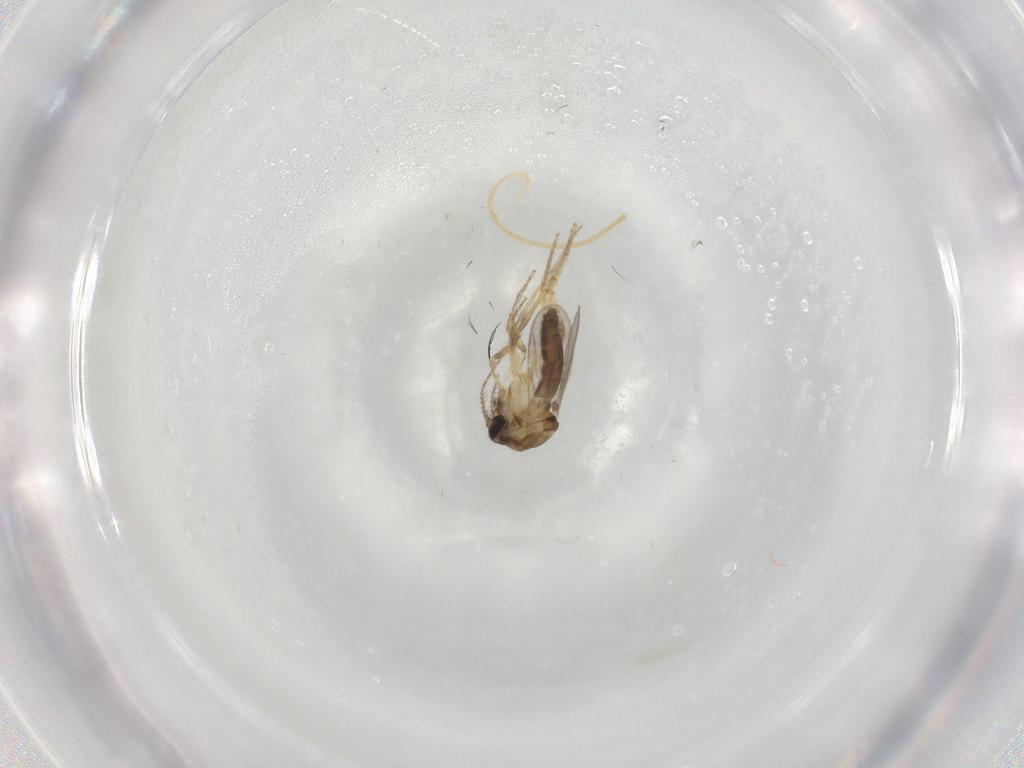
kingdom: Animalia
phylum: Arthropoda
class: Insecta
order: Diptera
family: Ceratopogonidae
